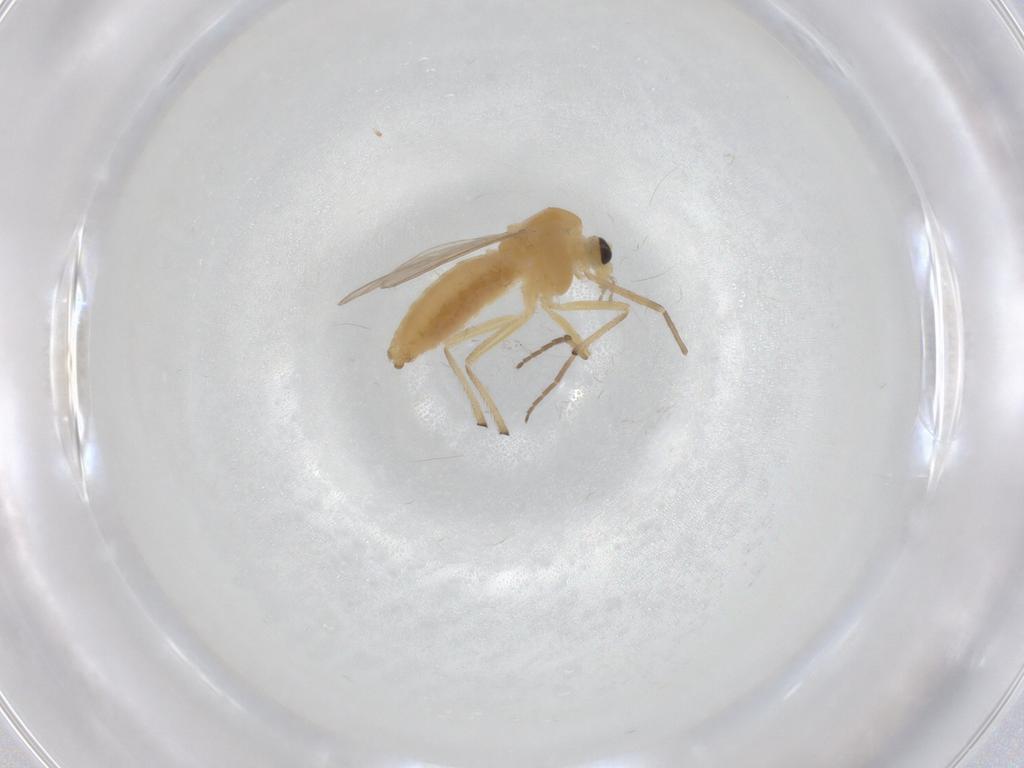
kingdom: Animalia
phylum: Arthropoda
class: Insecta
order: Diptera
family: Chironomidae
